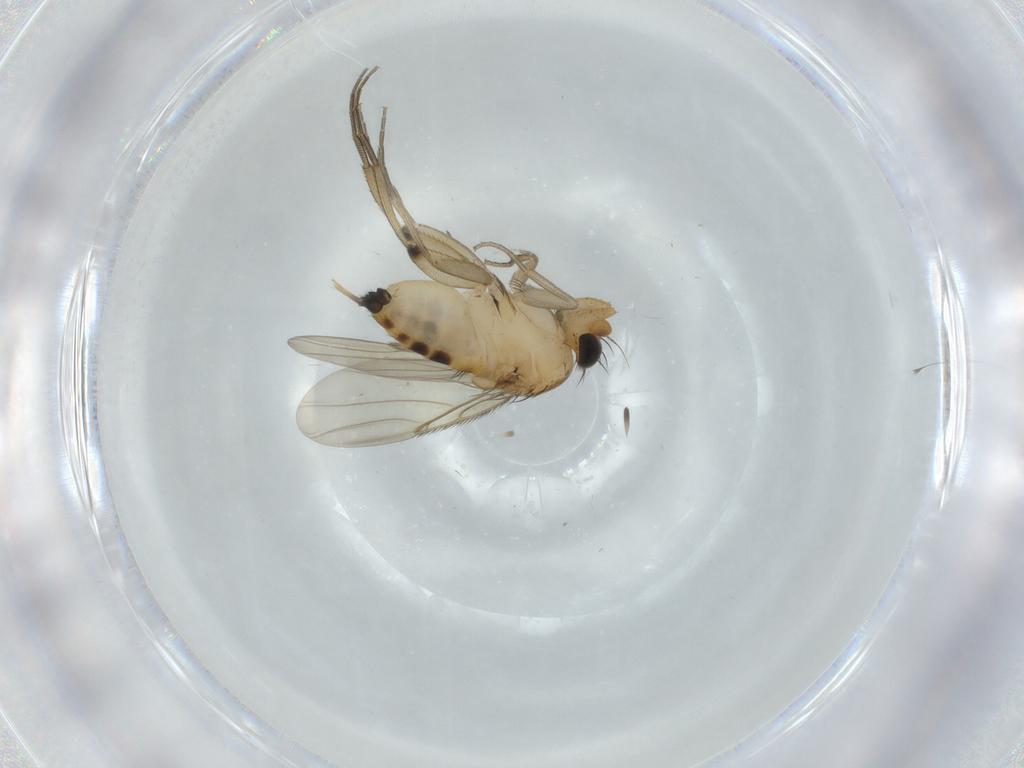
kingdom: Animalia
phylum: Arthropoda
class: Insecta
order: Diptera
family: Phoridae
